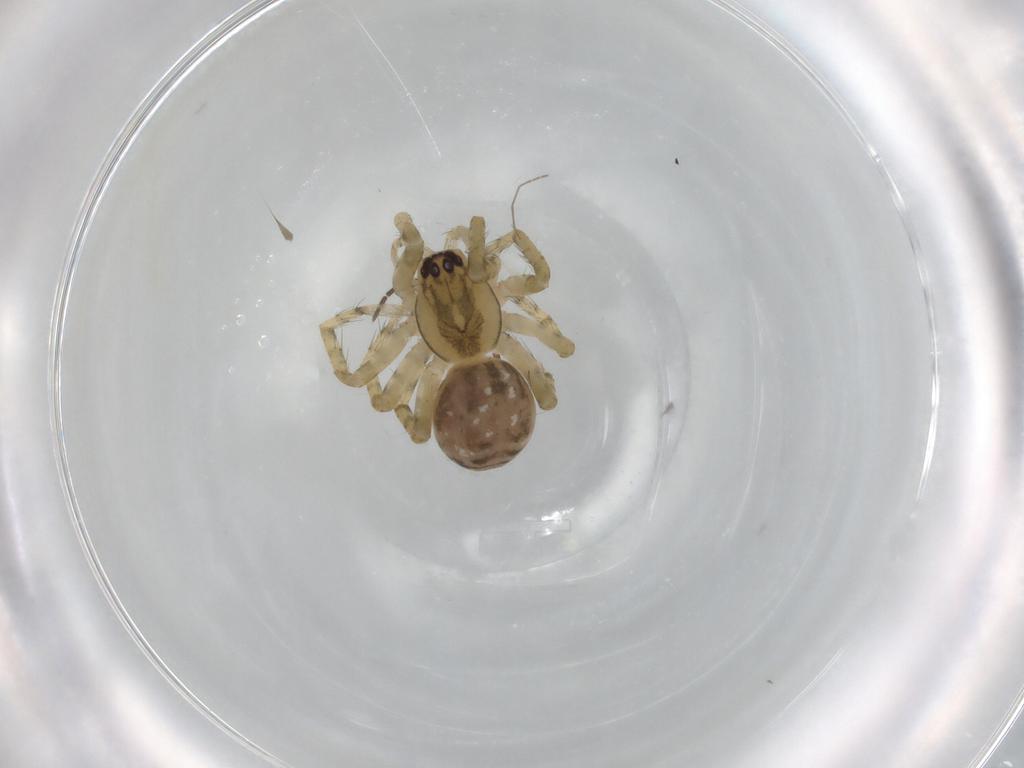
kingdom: Animalia
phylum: Arthropoda
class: Arachnida
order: Araneae
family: Amaurobiidae
